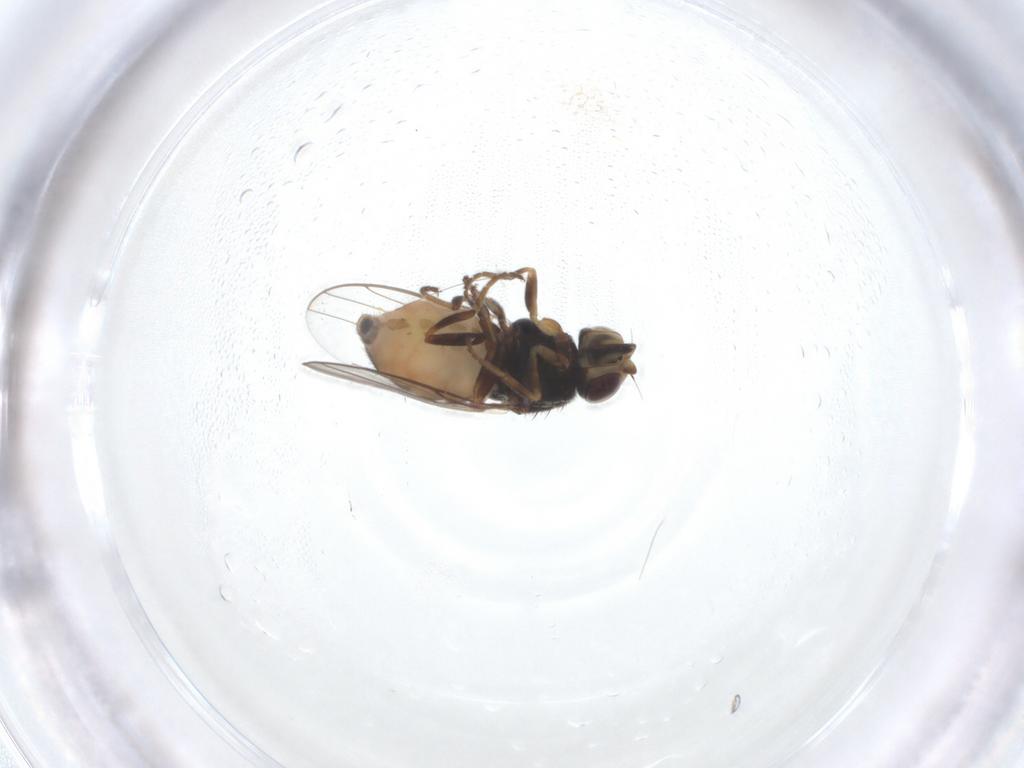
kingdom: Animalia
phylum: Arthropoda
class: Insecta
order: Diptera
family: Chloropidae
